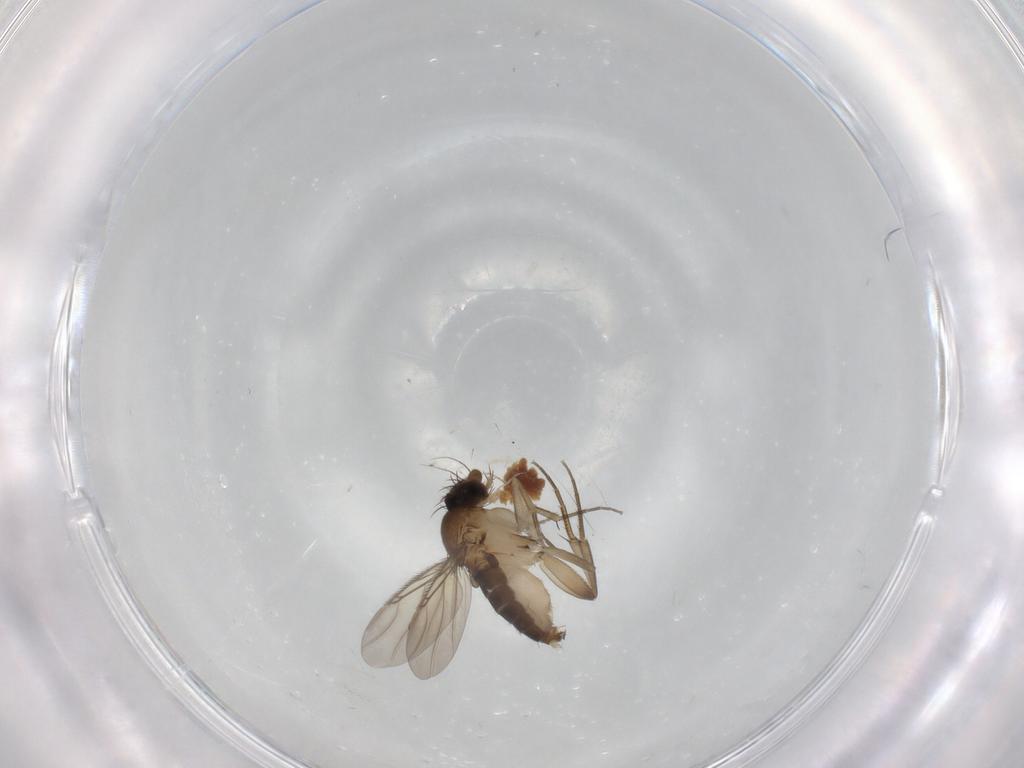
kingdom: Animalia
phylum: Arthropoda
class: Insecta
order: Diptera
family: Phoridae
